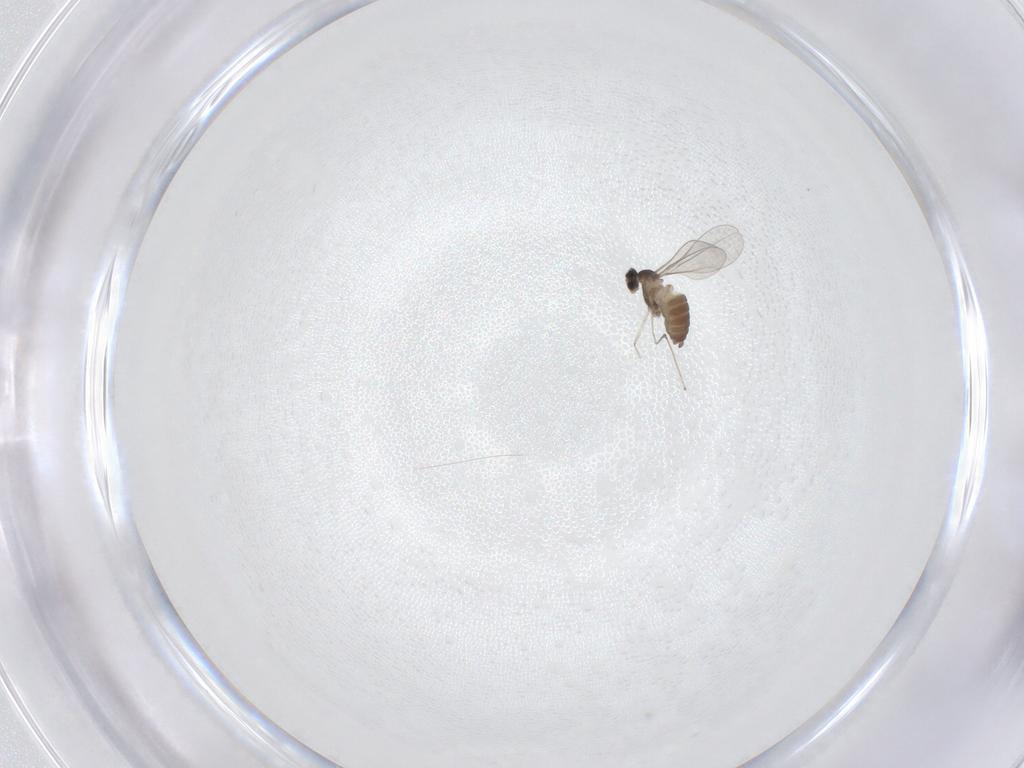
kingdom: Animalia
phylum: Arthropoda
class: Insecta
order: Diptera
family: Cecidomyiidae
